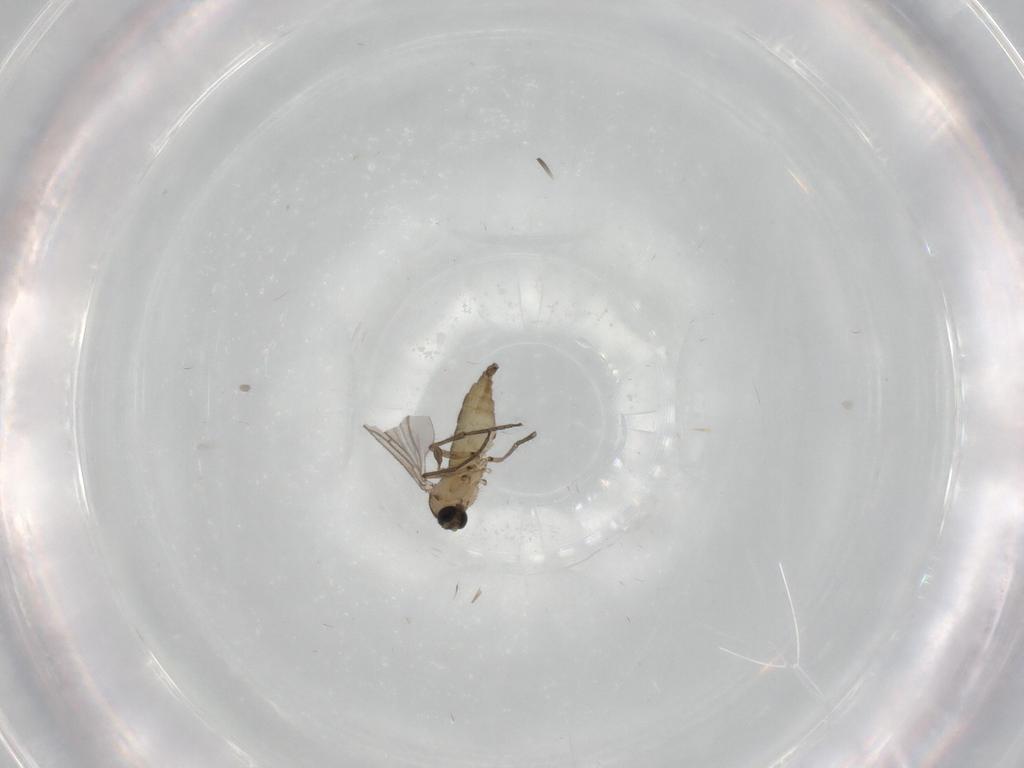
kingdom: Animalia
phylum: Arthropoda
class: Insecta
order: Diptera
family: Sciaridae
